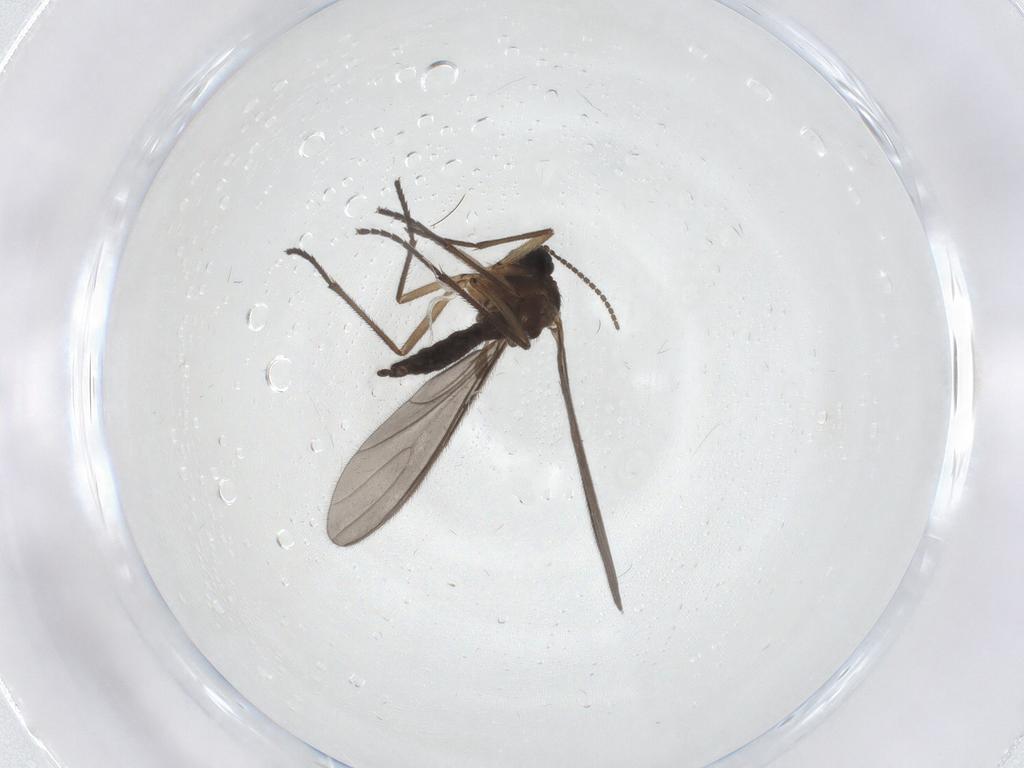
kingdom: Animalia
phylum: Arthropoda
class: Insecta
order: Diptera
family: Sciaridae
